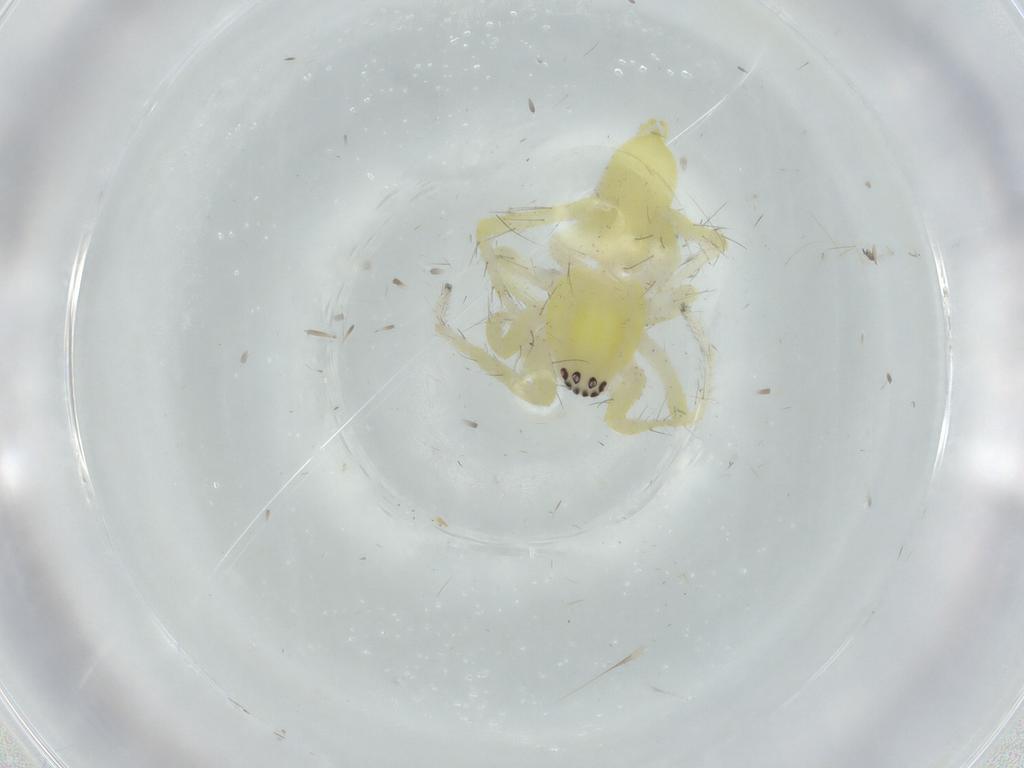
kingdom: Animalia
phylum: Arthropoda
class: Arachnida
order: Araneae
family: Anyphaenidae
